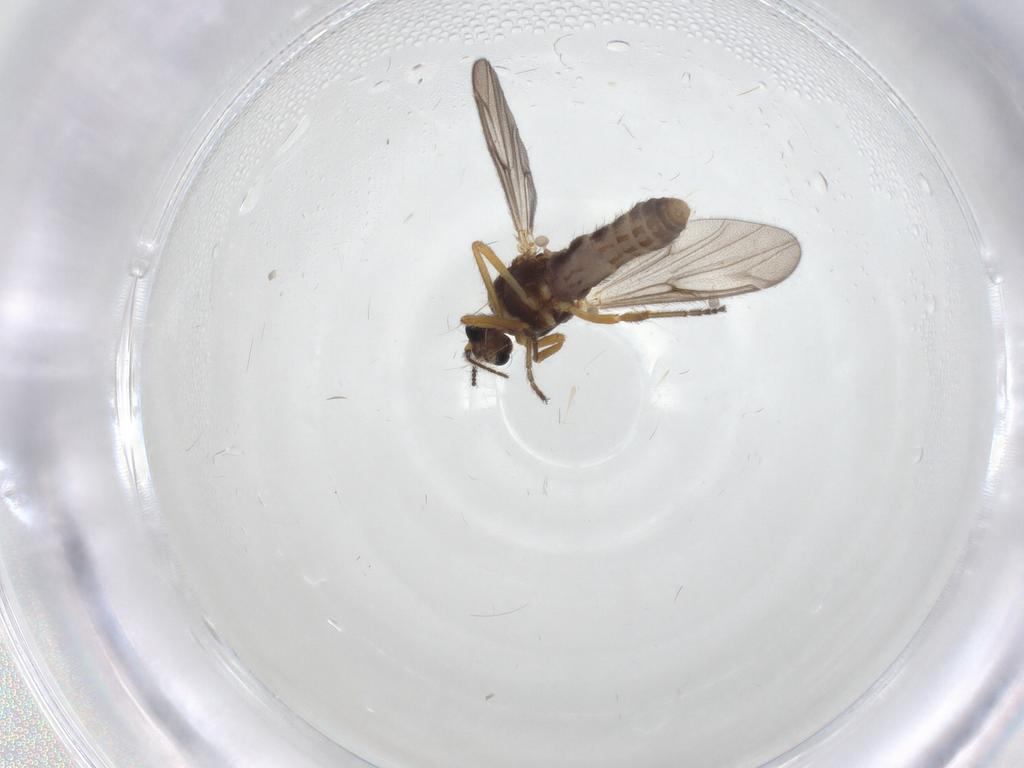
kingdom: Animalia
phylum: Arthropoda
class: Insecta
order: Diptera
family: Ceratopogonidae
